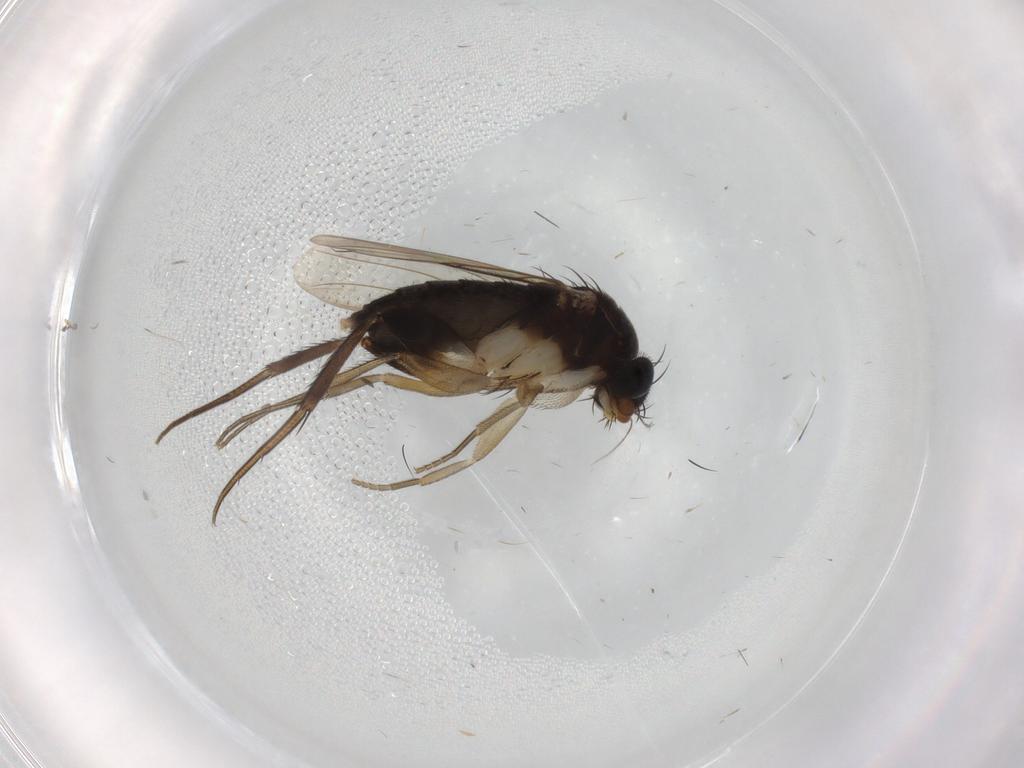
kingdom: Animalia
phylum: Arthropoda
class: Insecta
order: Diptera
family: Phoridae
